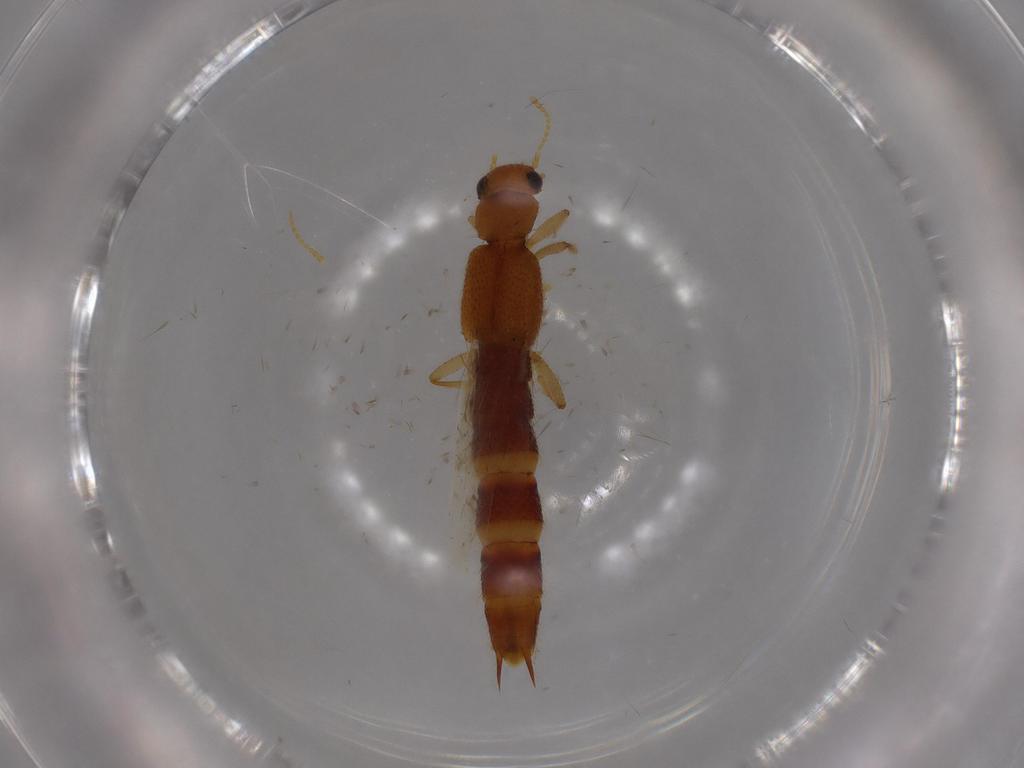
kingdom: Animalia
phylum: Arthropoda
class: Insecta
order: Coleoptera
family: Staphylinidae
